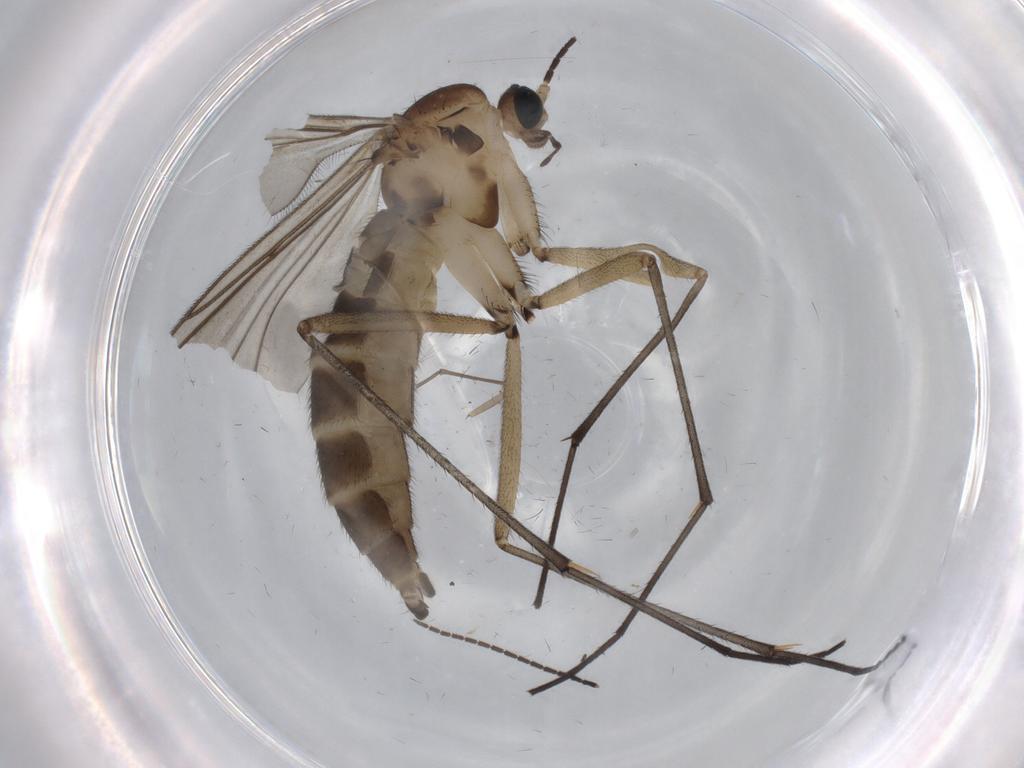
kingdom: Animalia
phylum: Arthropoda
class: Insecta
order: Diptera
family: Sciaridae
